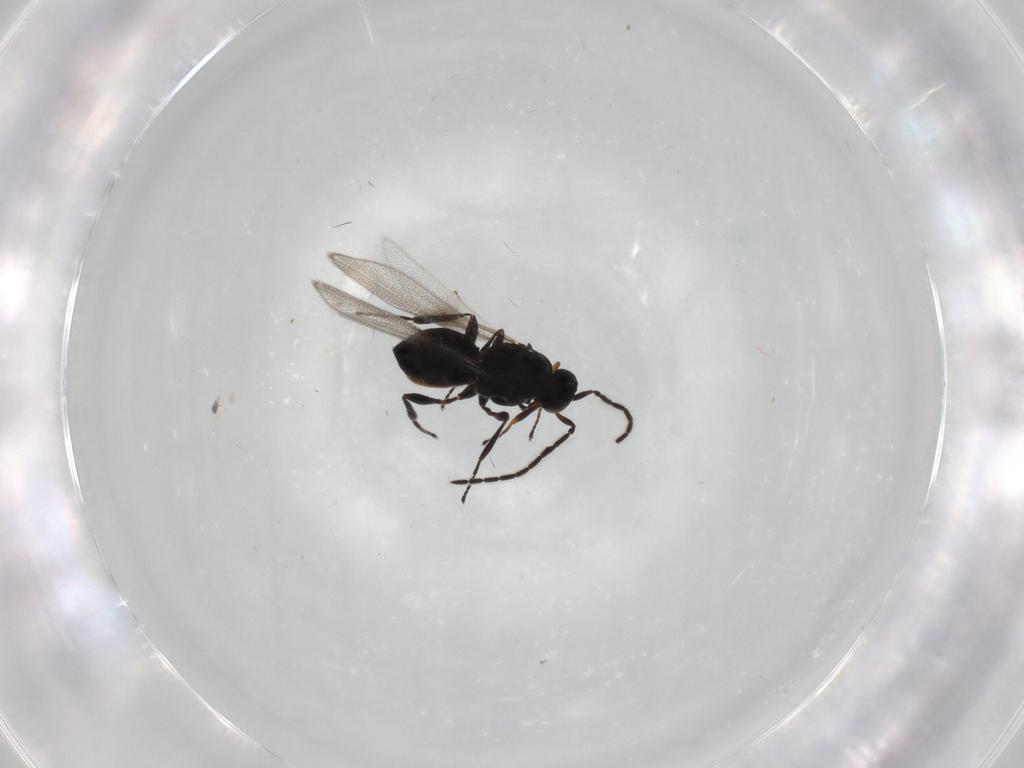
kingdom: Animalia
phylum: Arthropoda
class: Insecta
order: Hymenoptera
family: Platygastridae
